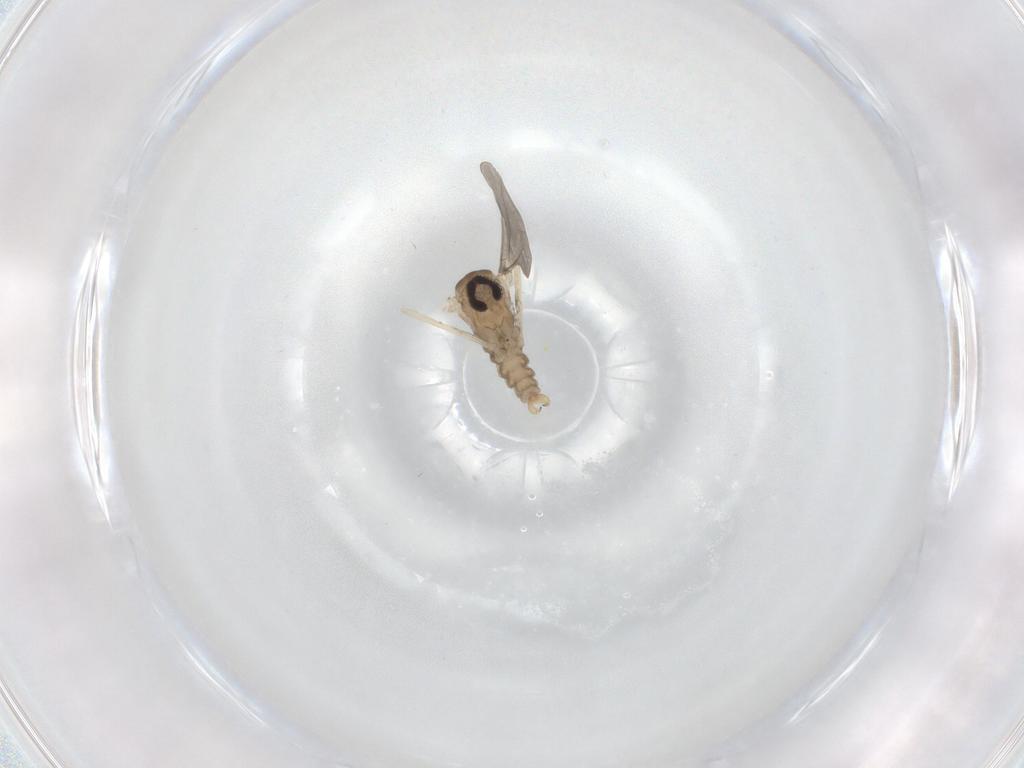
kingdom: Animalia
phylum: Arthropoda
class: Insecta
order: Diptera
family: Cecidomyiidae
